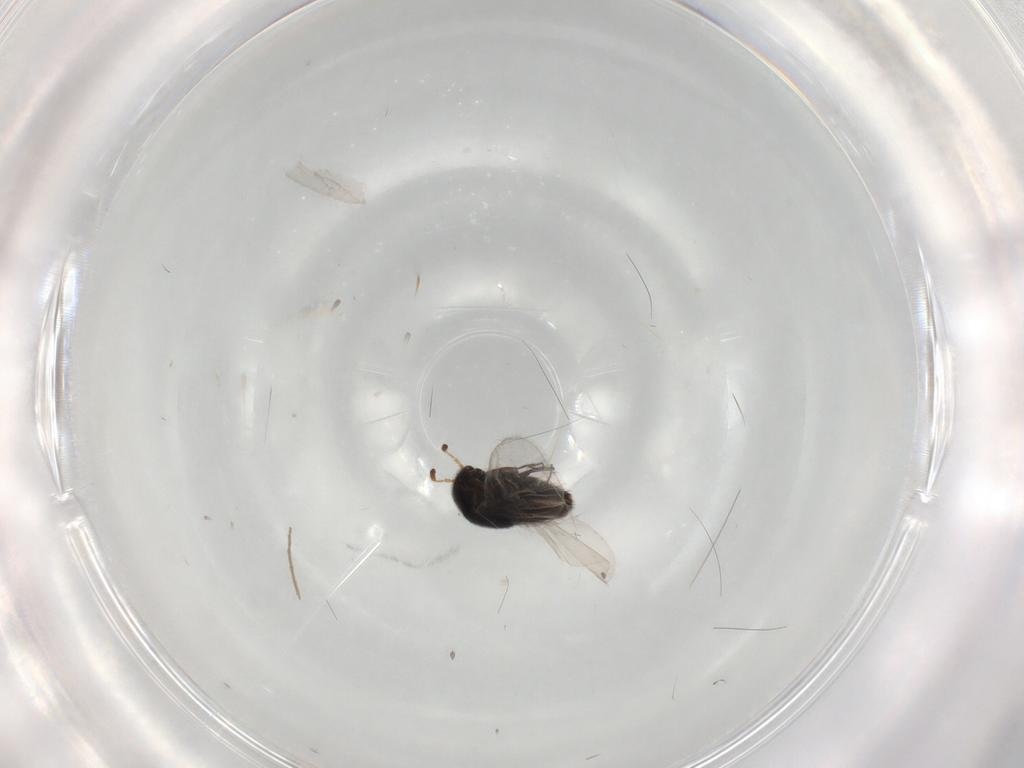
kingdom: Animalia
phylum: Arthropoda
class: Insecta
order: Coleoptera
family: Staphylinidae
